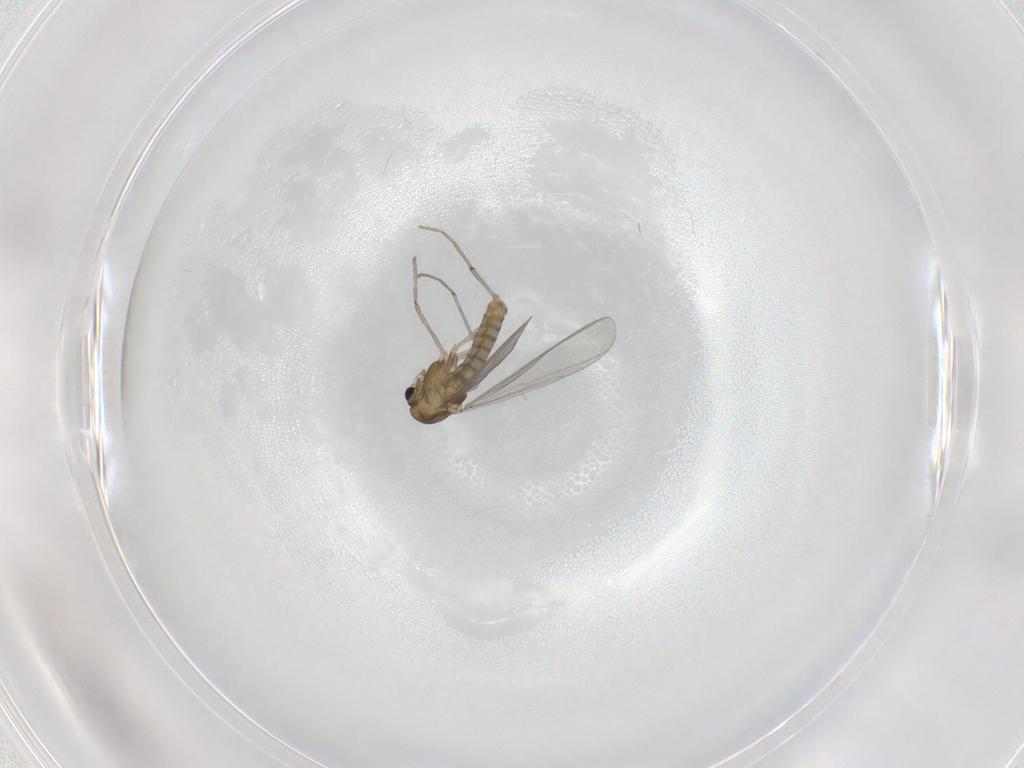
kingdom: Animalia
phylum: Arthropoda
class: Insecta
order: Diptera
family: Chironomidae
